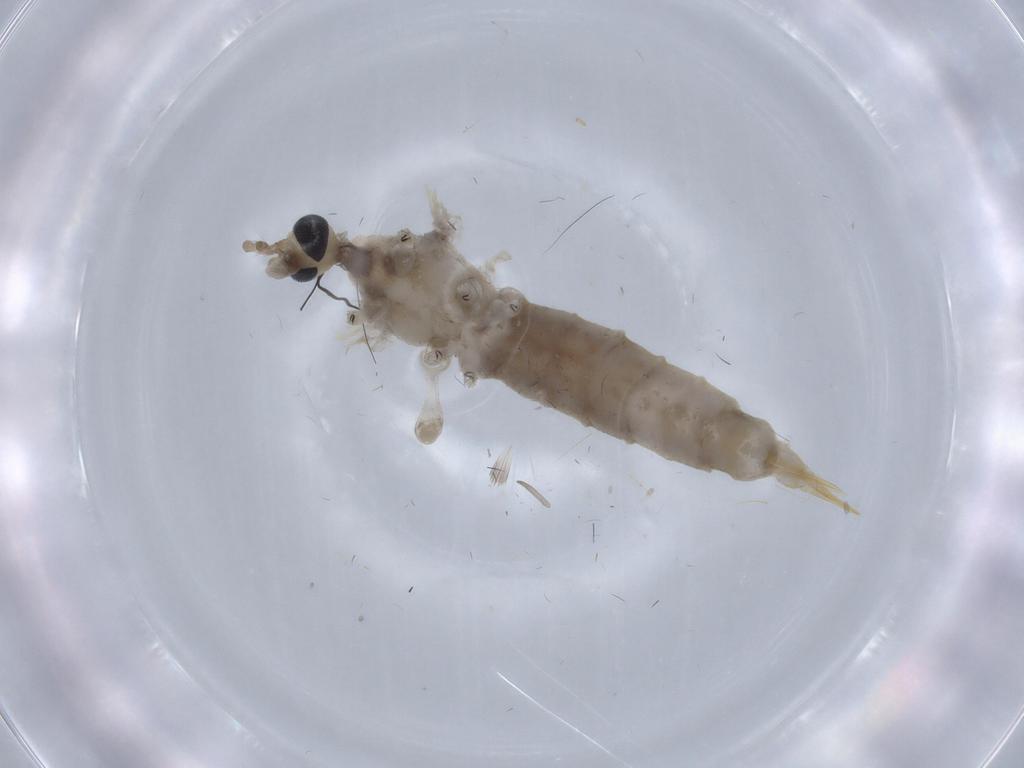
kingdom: Animalia
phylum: Arthropoda
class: Insecta
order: Diptera
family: Limoniidae
